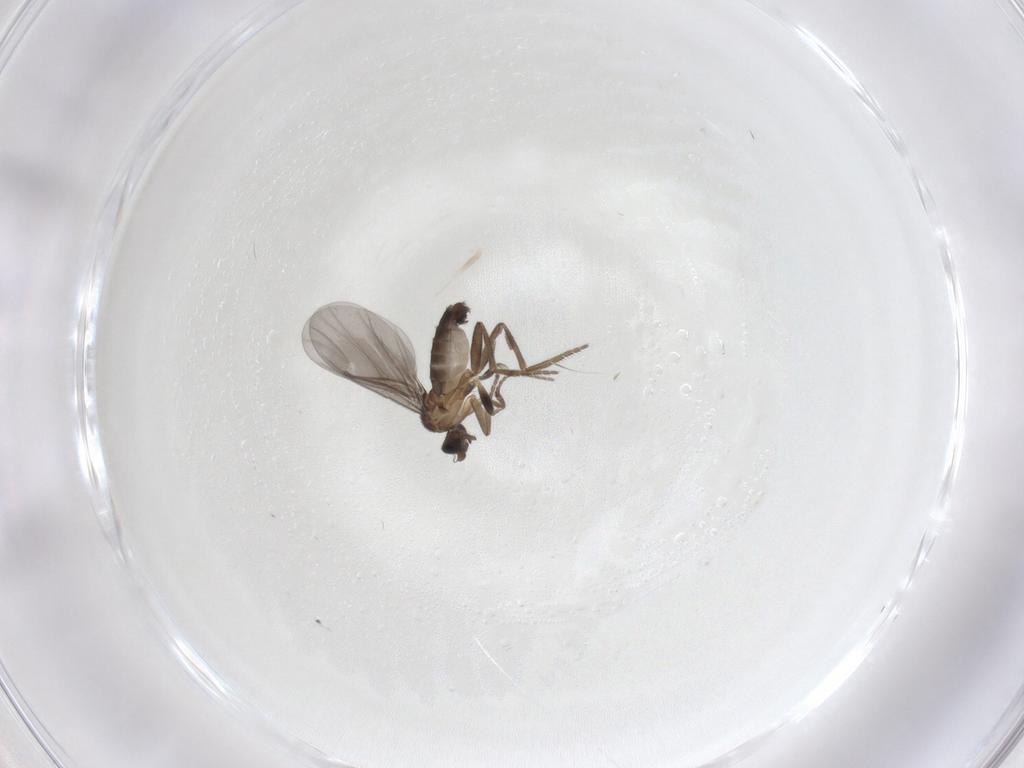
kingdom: Animalia
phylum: Arthropoda
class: Insecta
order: Diptera
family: Phoridae
